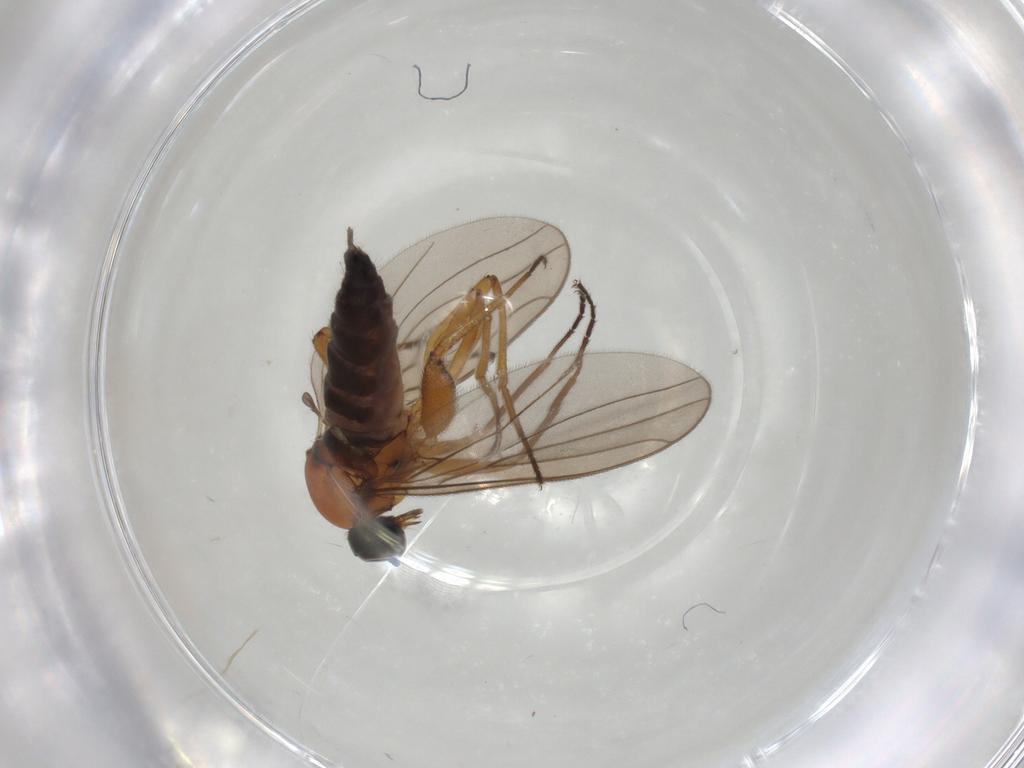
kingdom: Animalia
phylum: Arthropoda
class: Insecta
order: Diptera
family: Hybotidae
